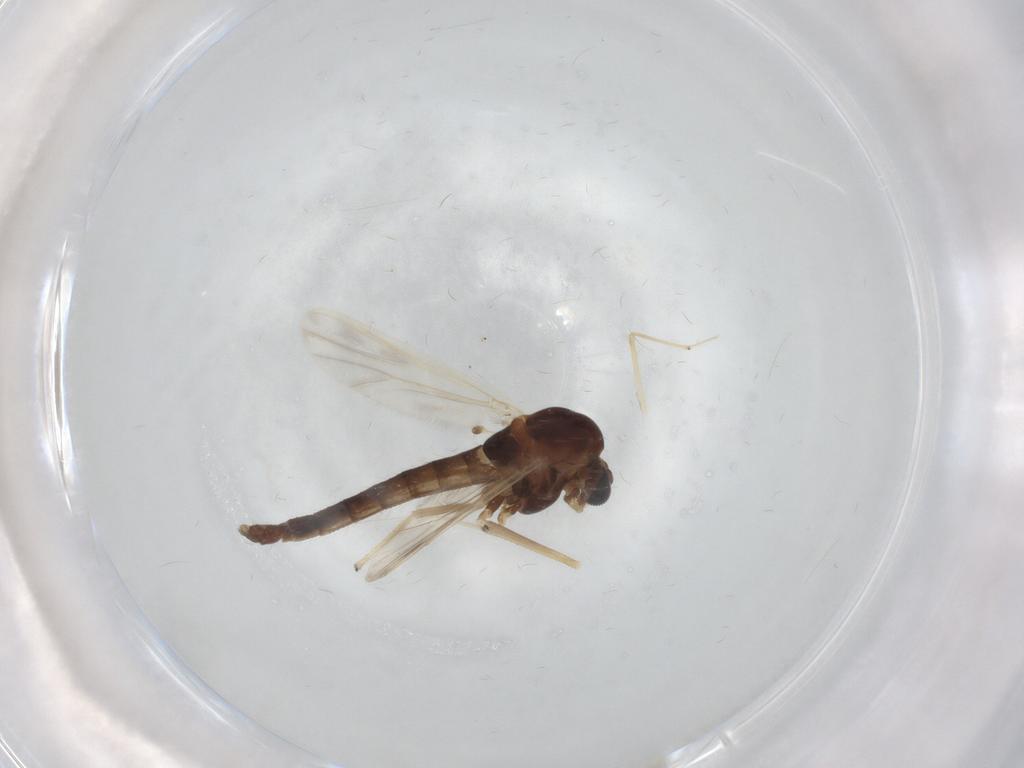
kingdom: Animalia
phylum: Arthropoda
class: Insecta
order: Diptera
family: Chironomidae
